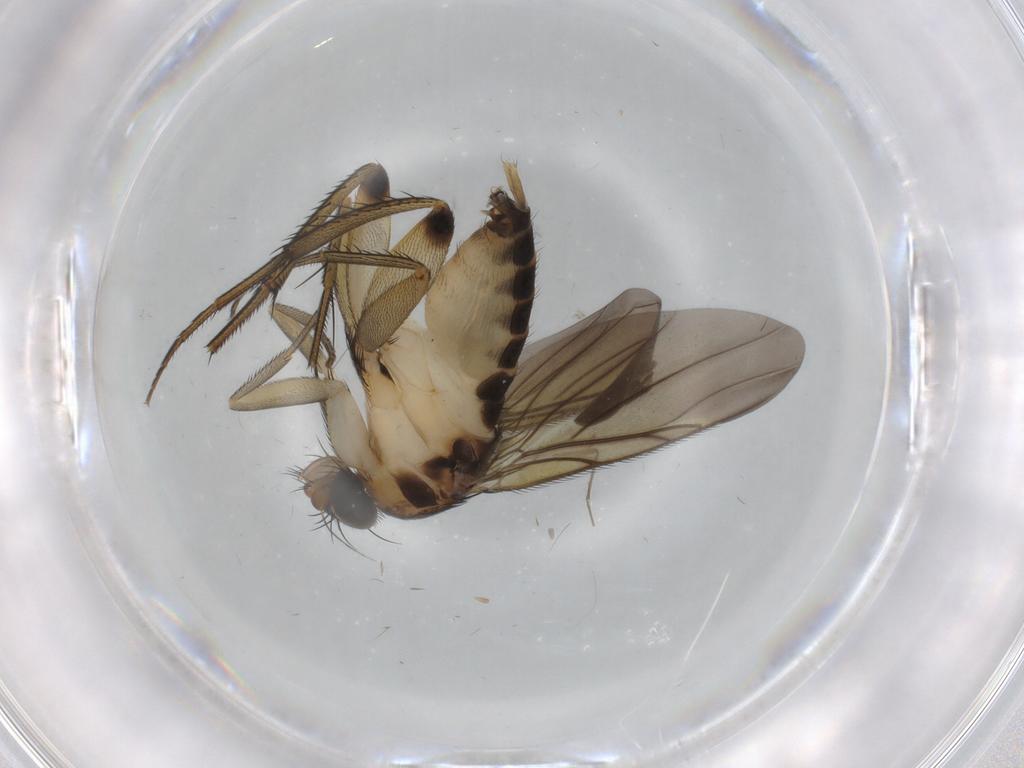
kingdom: Animalia
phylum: Arthropoda
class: Insecta
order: Diptera
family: Phoridae
